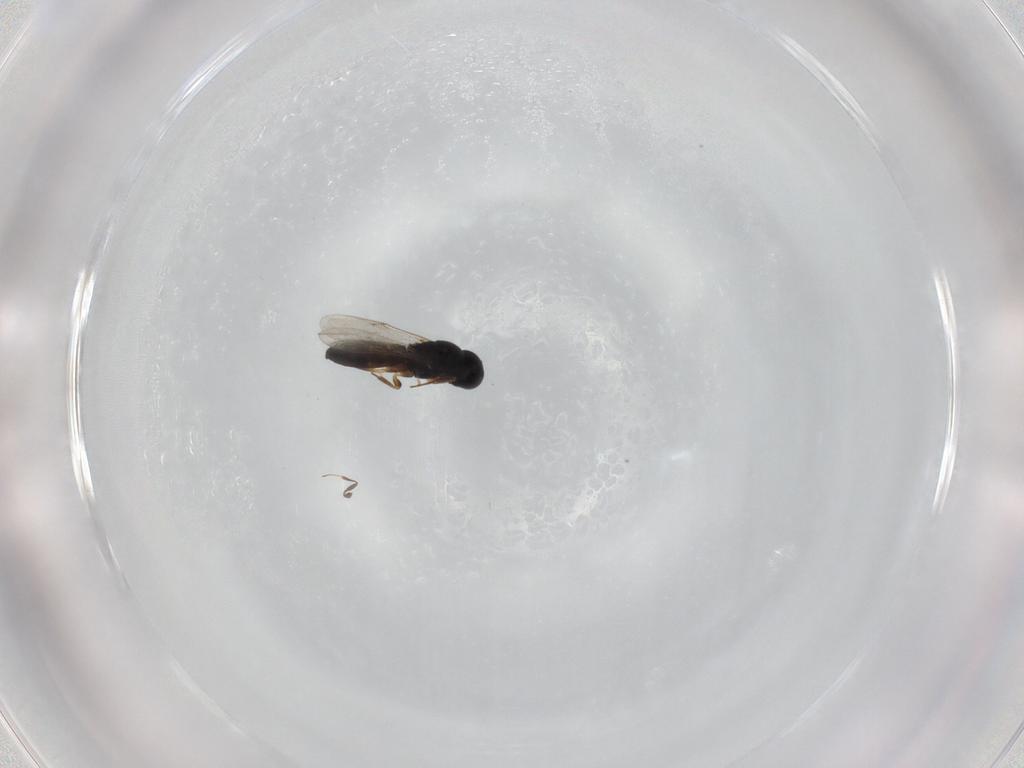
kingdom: Animalia
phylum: Arthropoda
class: Insecta
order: Hymenoptera
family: Scelionidae
